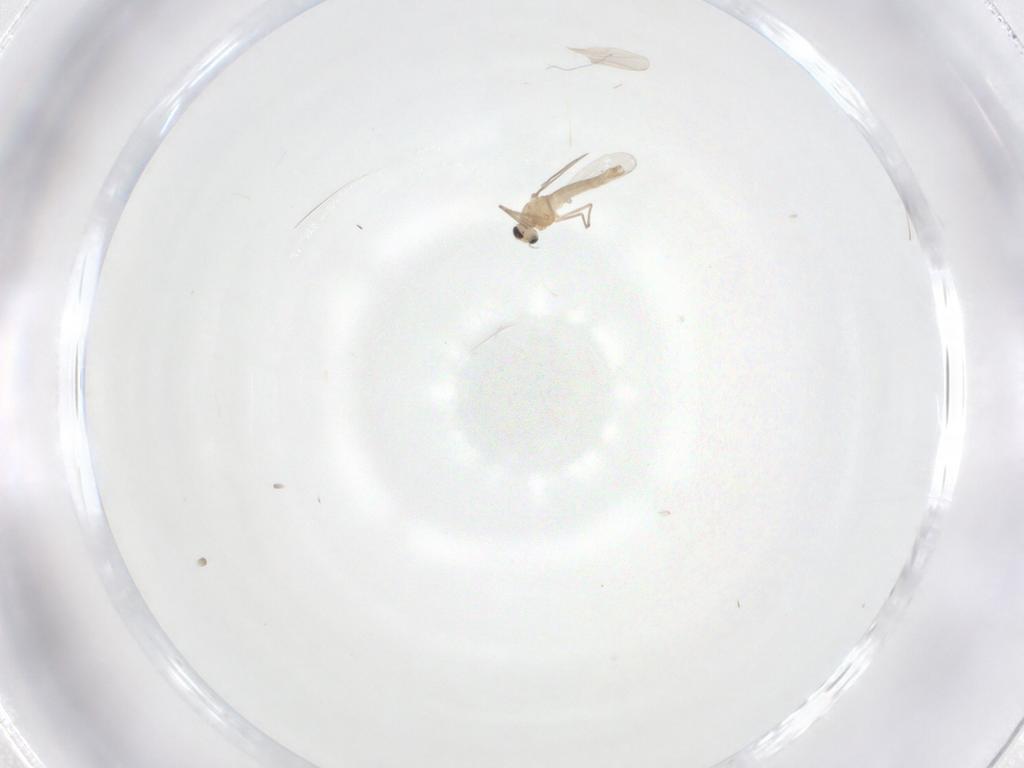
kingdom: Animalia
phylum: Arthropoda
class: Insecta
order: Diptera
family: Chironomidae
